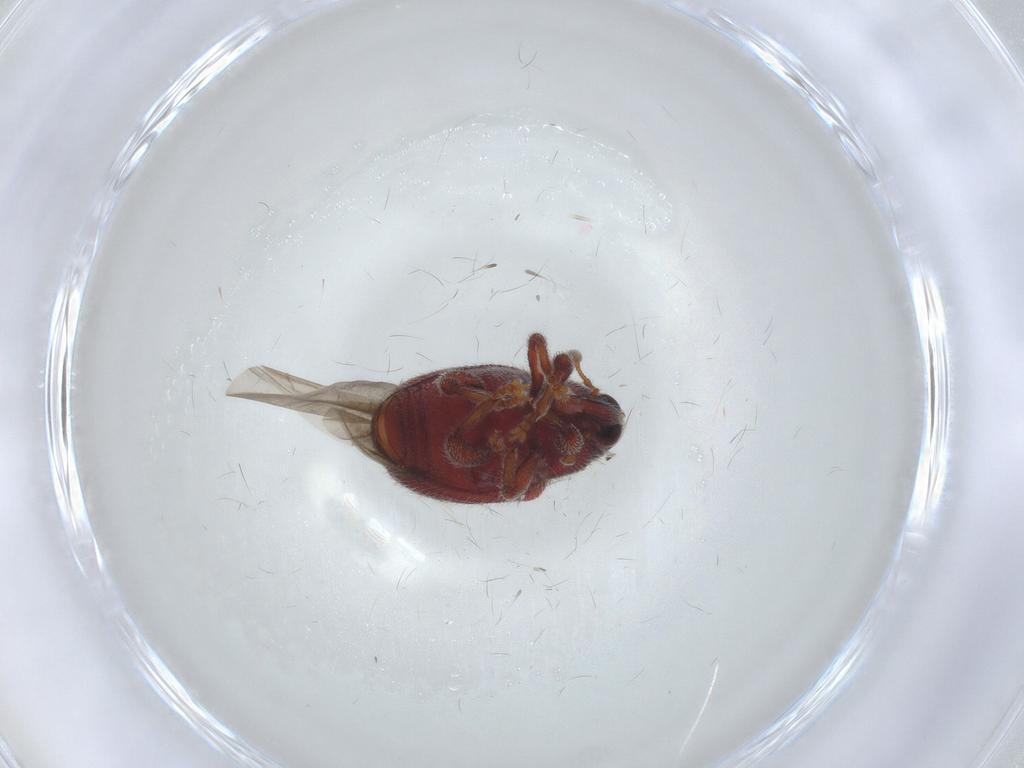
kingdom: Animalia
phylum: Arthropoda
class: Insecta
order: Coleoptera
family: Curculionidae
